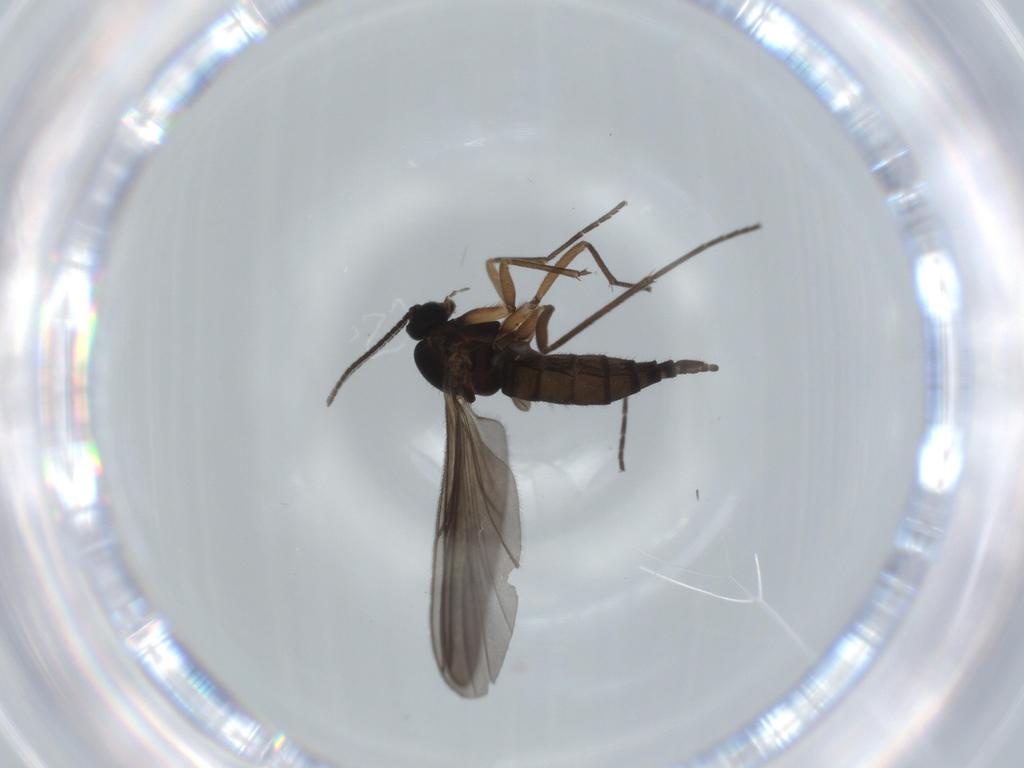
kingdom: Animalia
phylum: Arthropoda
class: Insecta
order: Diptera
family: Sciaridae
